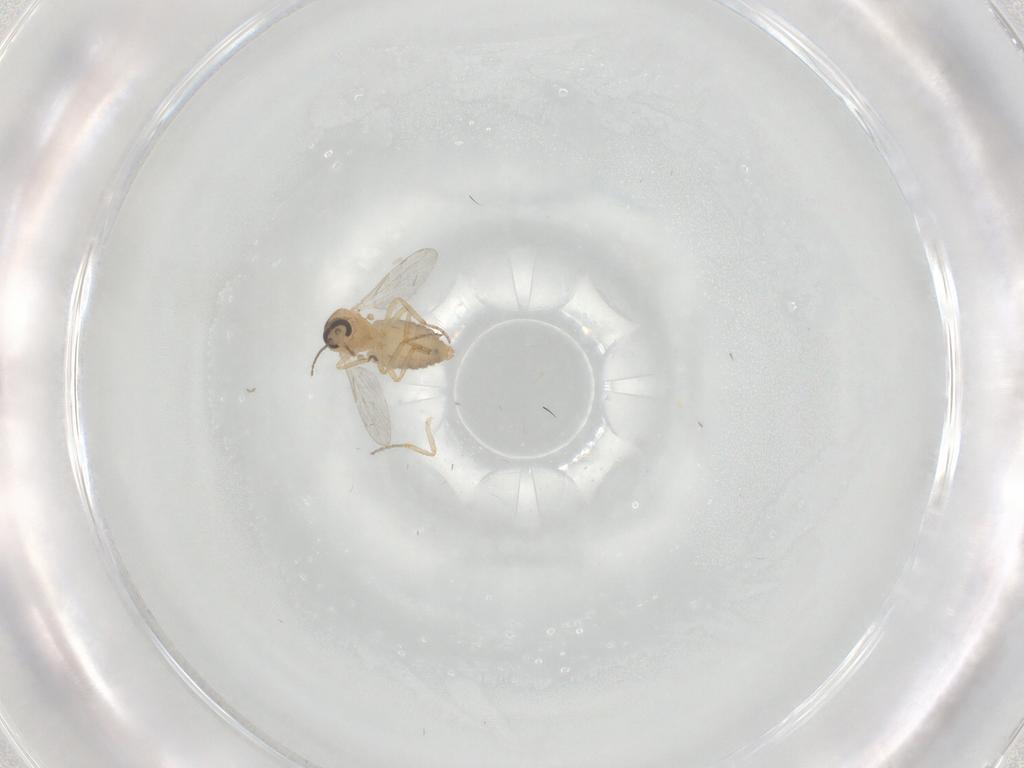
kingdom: Animalia
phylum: Arthropoda
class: Insecta
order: Diptera
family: Ceratopogonidae
